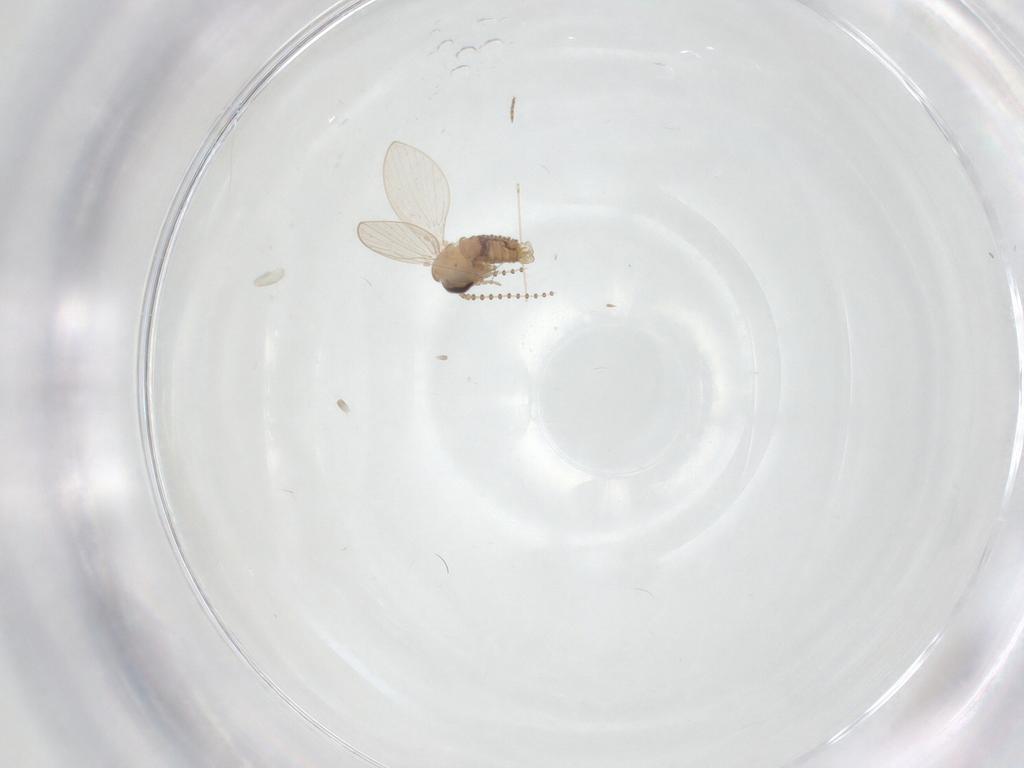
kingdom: Animalia
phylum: Arthropoda
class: Insecta
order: Diptera
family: Psychodidae
